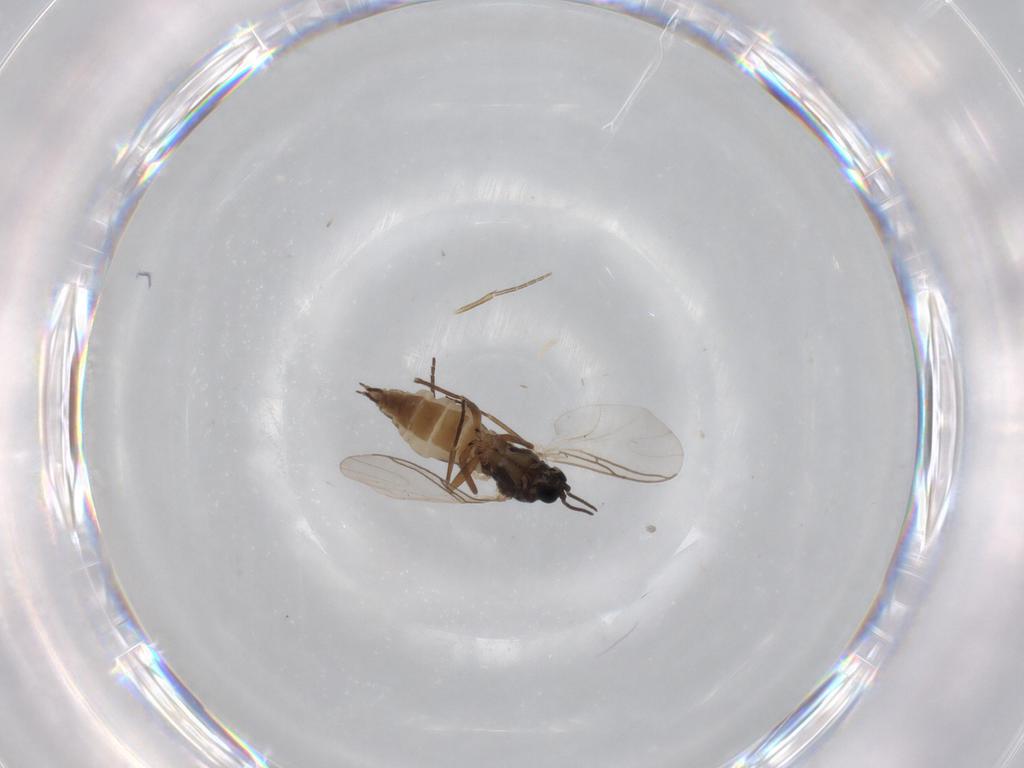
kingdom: Animalia
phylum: Arthropoda
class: Insecta
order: Diptera
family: Sciaridae
